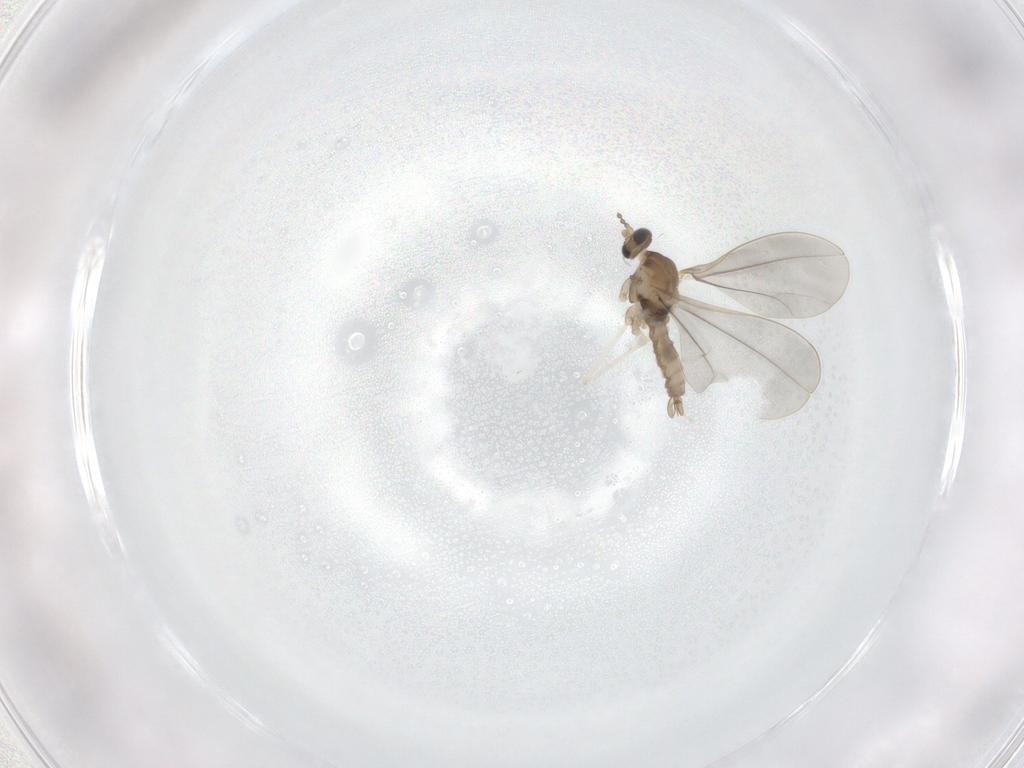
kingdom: Animalia
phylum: Arthropoda
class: Insecta
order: Diptera
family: Cecidomyiidae
